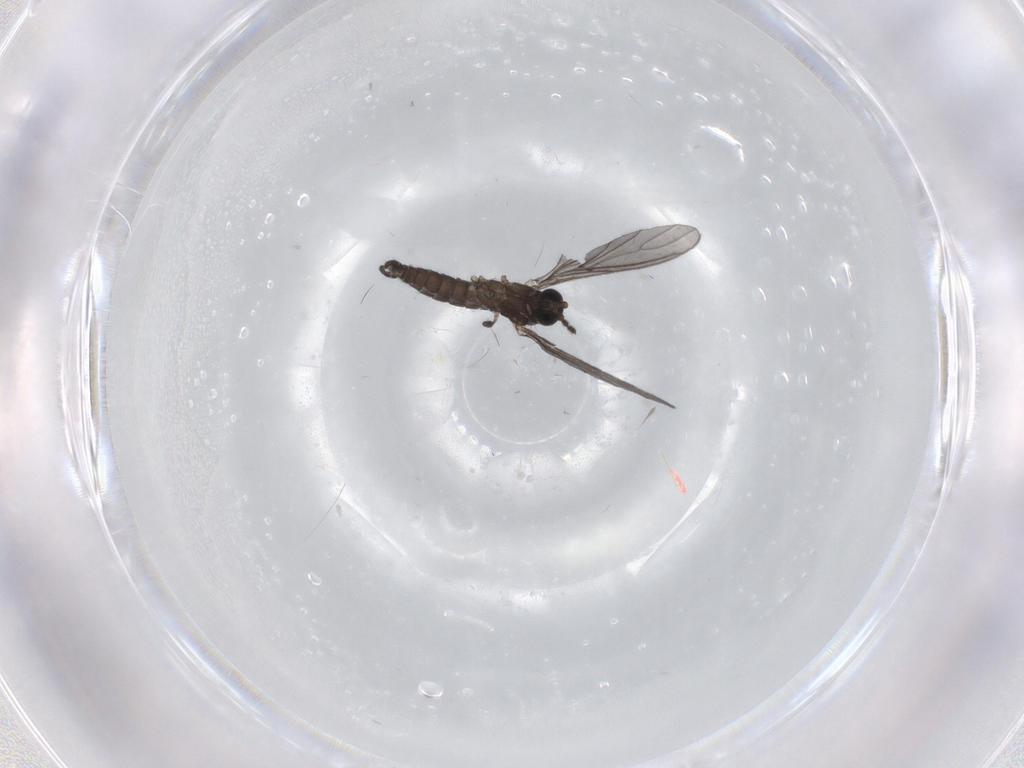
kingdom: Animalia
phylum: Arthropoda
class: Insecta
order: Diptera
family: Sciaridae
